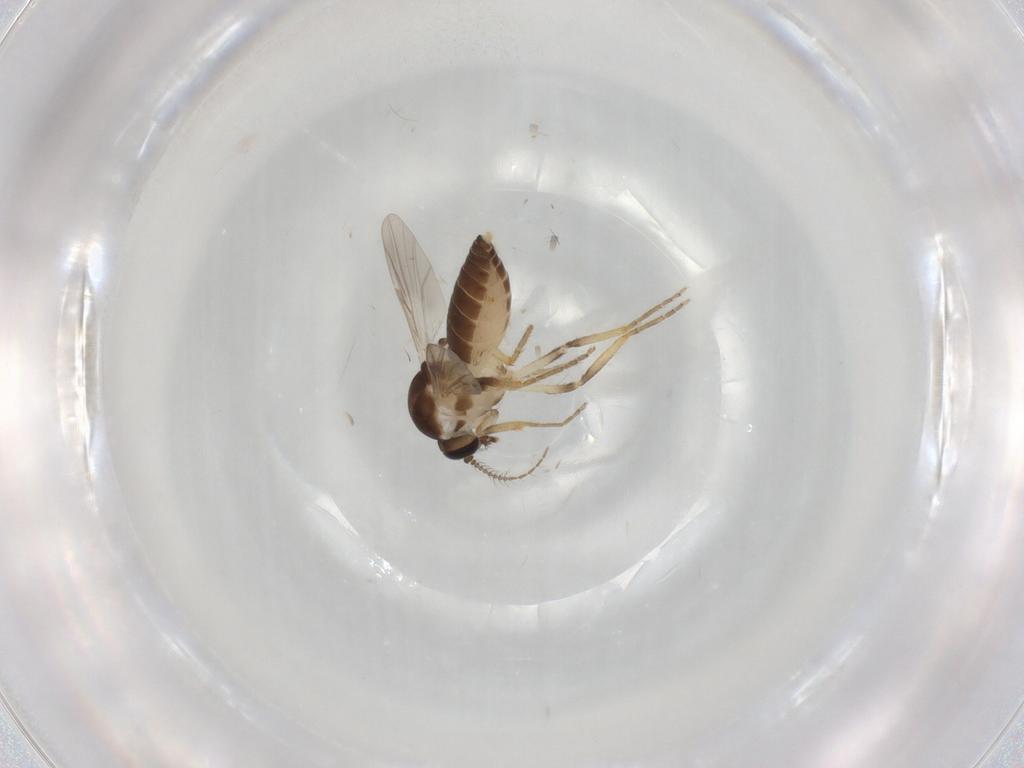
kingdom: Animalia
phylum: Arthropoda
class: Insecta
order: Diptera
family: Ceratopogonidae
